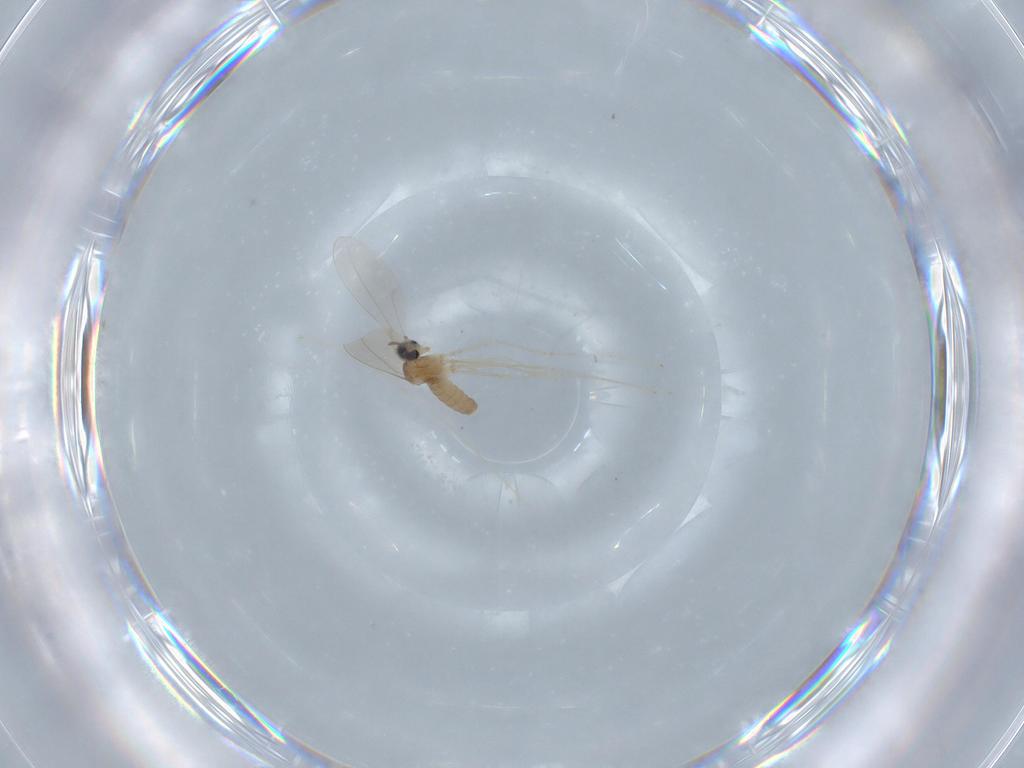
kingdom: Animalia
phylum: Arthropoda
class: Insecta
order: Diptera
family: Cecidomyiidae
